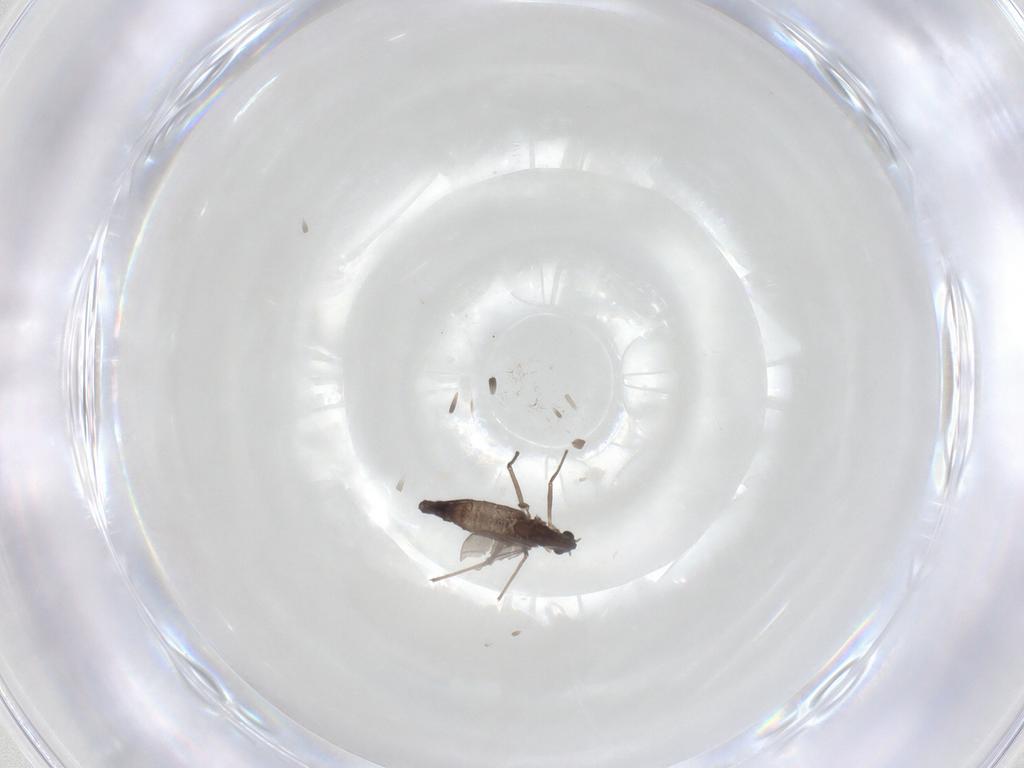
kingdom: Animalia
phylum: Arthropoda
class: Insecta
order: Diptera
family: Chironomidae
